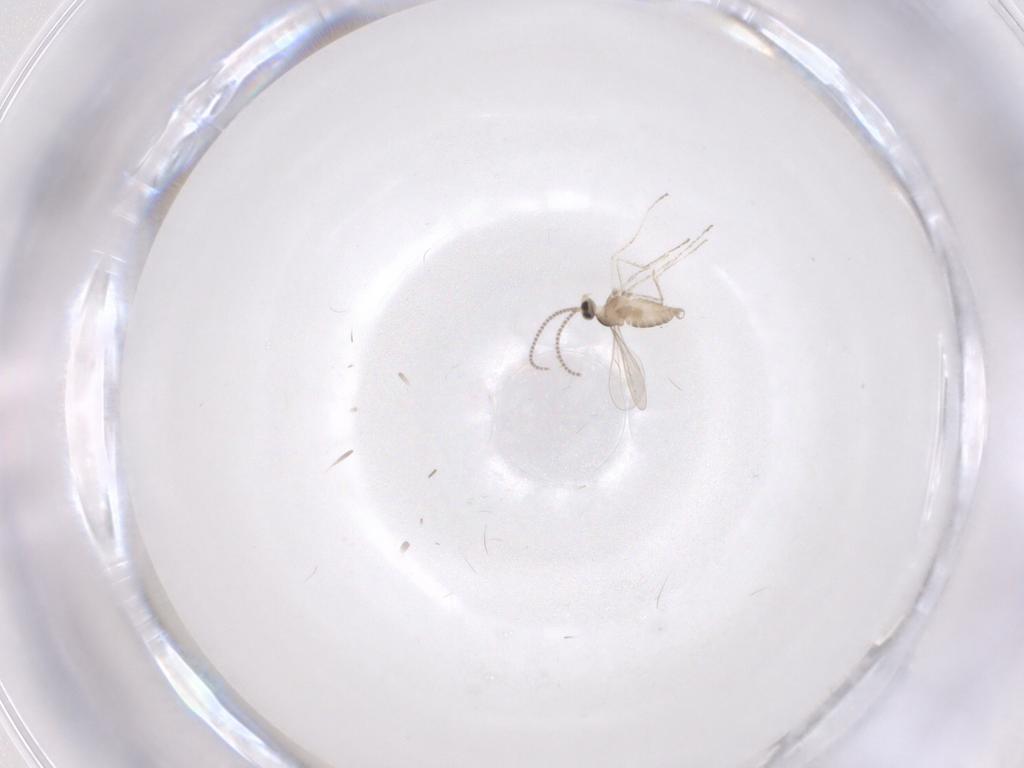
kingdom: Animalia
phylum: Arthropoda
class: Insecta
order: Diptera
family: Cecidomyiidae
